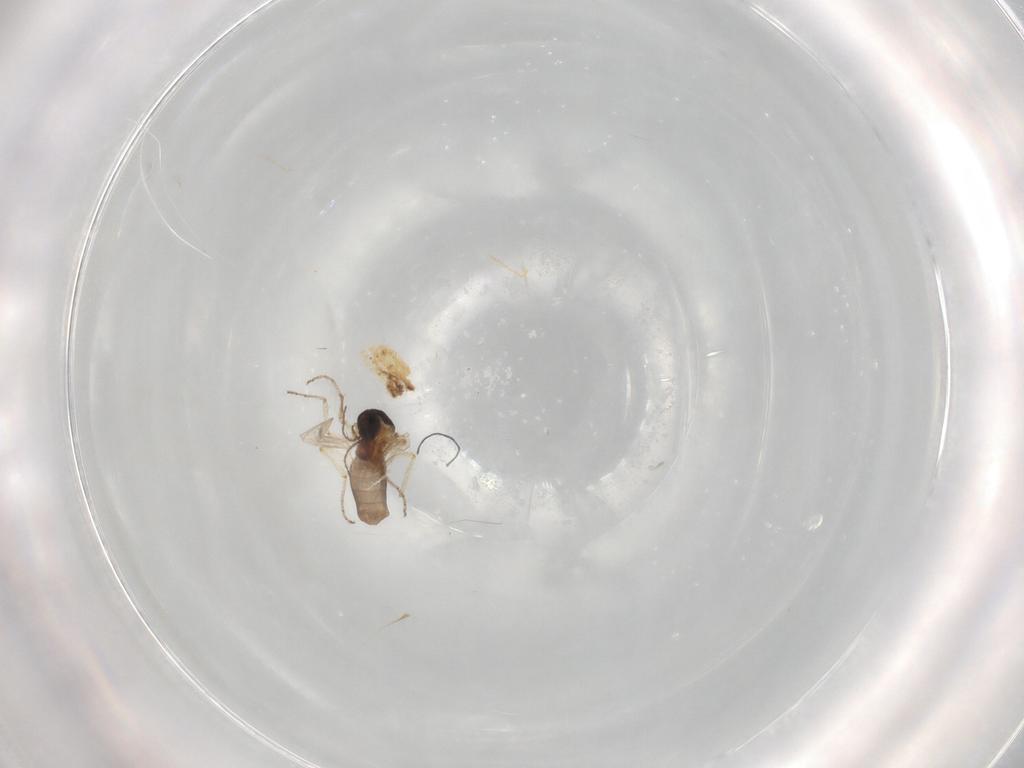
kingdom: Animalia
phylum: Arthropoda
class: Insecta
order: Diptera
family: Ceratopogonidae
